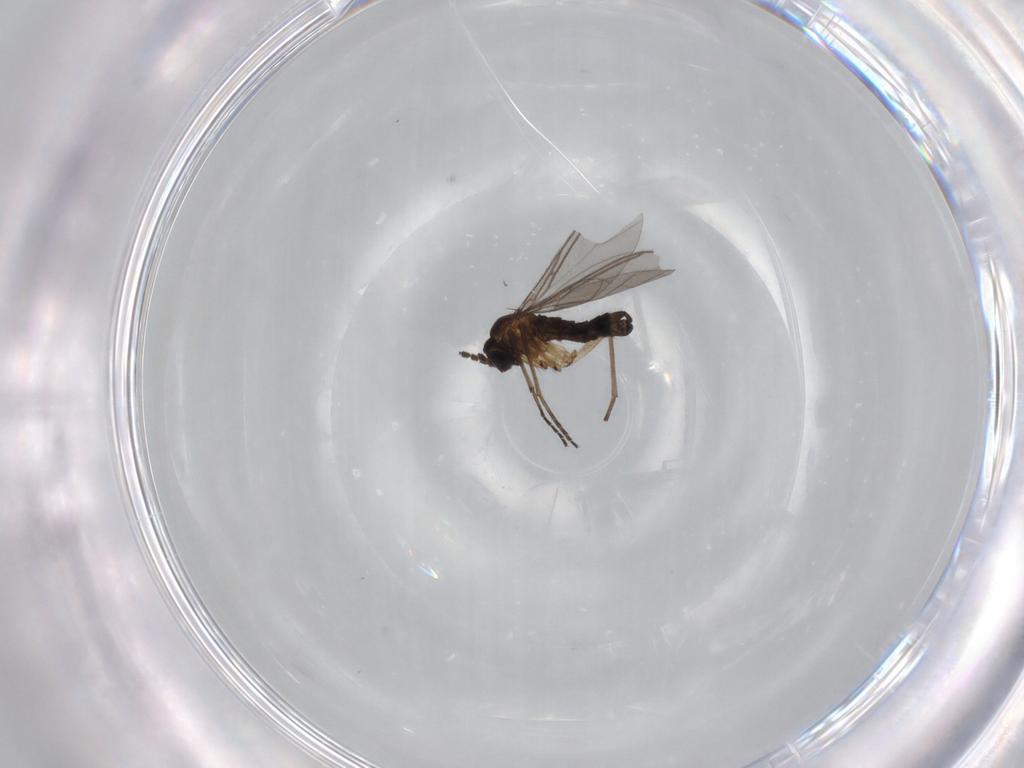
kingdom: Animalia
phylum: Arthropoda
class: Insecta
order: Diptera
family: Sciaridae
